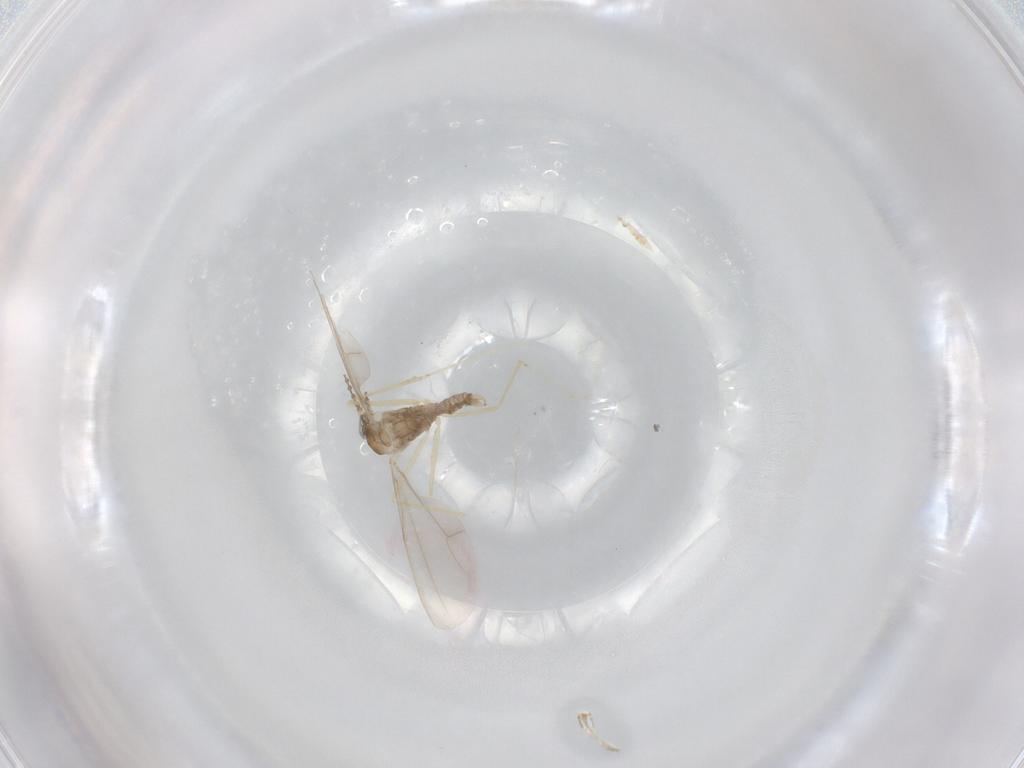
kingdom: Animalia
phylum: Arthropoda
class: Insecta
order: Diptera
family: Cecidomyiidae
